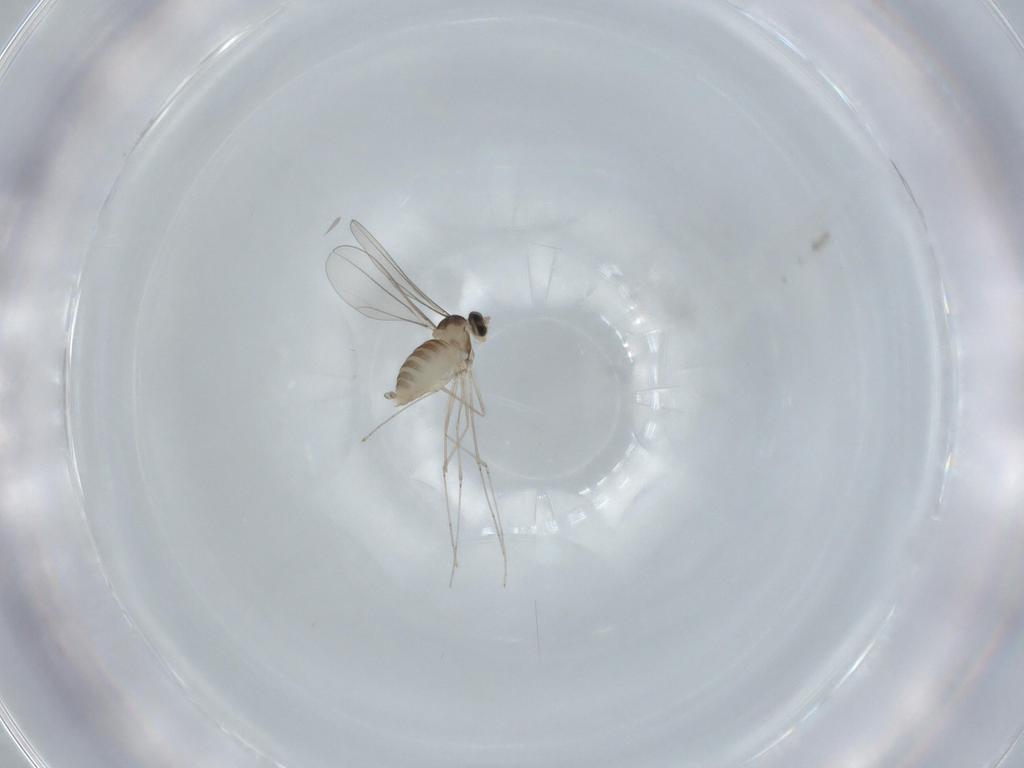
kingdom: Animalia
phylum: Arthropoda
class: Insecta
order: Diptera
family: Cecidomyiidae
